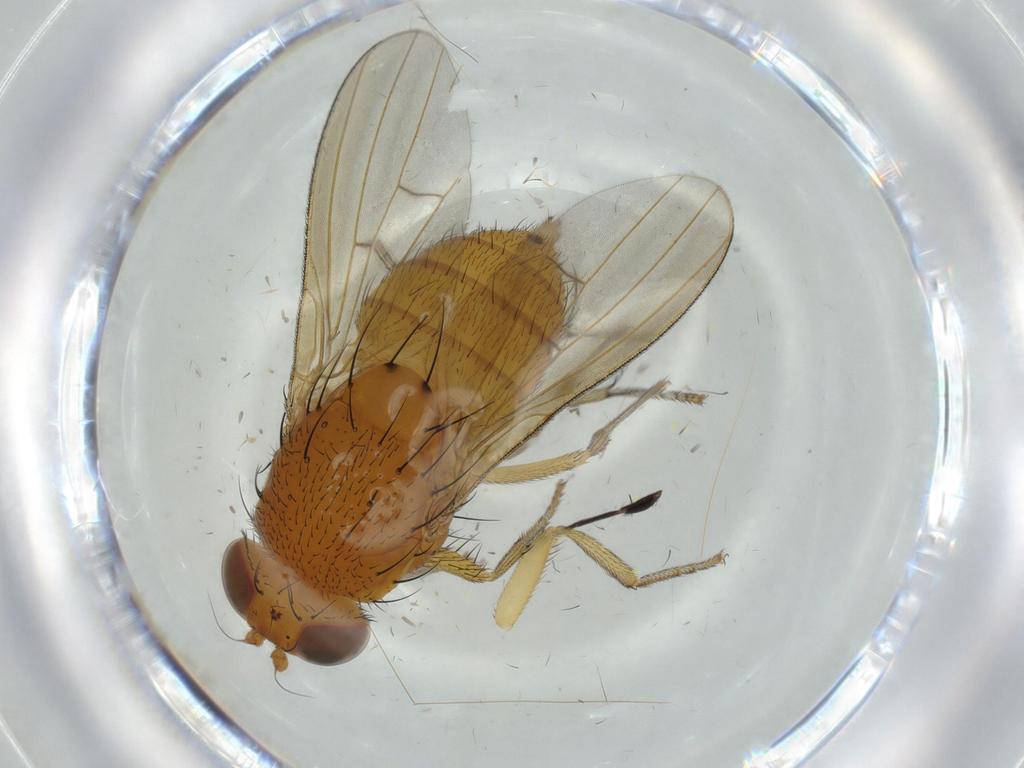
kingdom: Animalia
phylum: Arthropoda
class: Insecta
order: Diptera
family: Milichiidae
